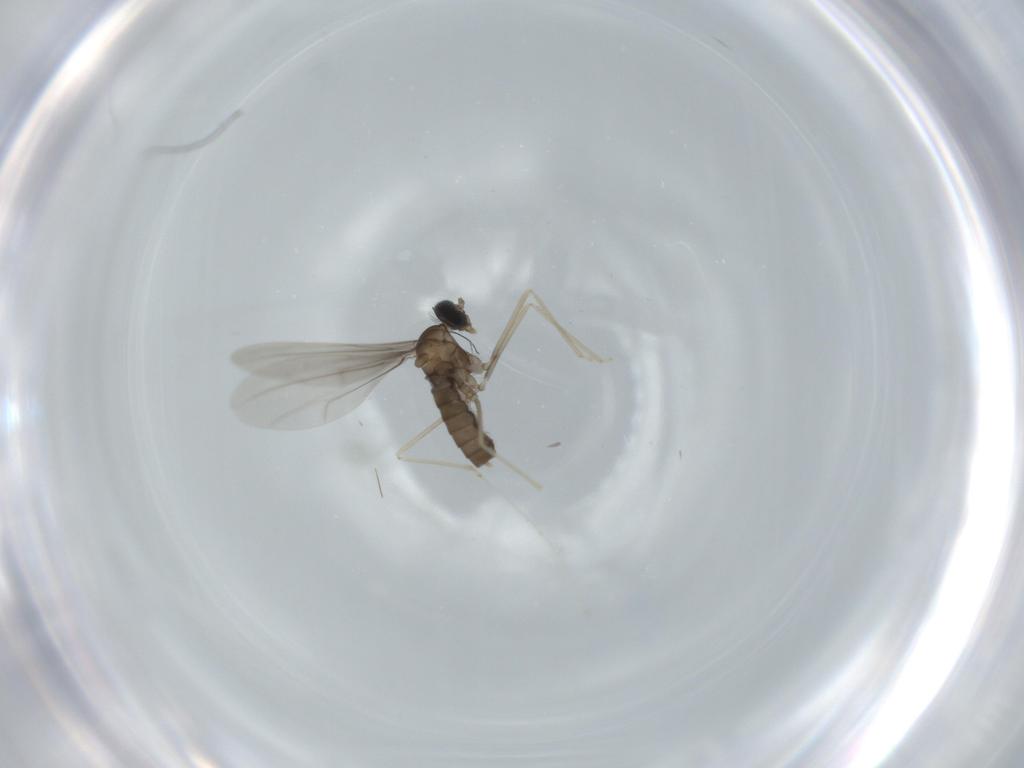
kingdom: Animalia
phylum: Arthropoda
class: Insecta
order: Diptera
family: Cecidomyiidae
